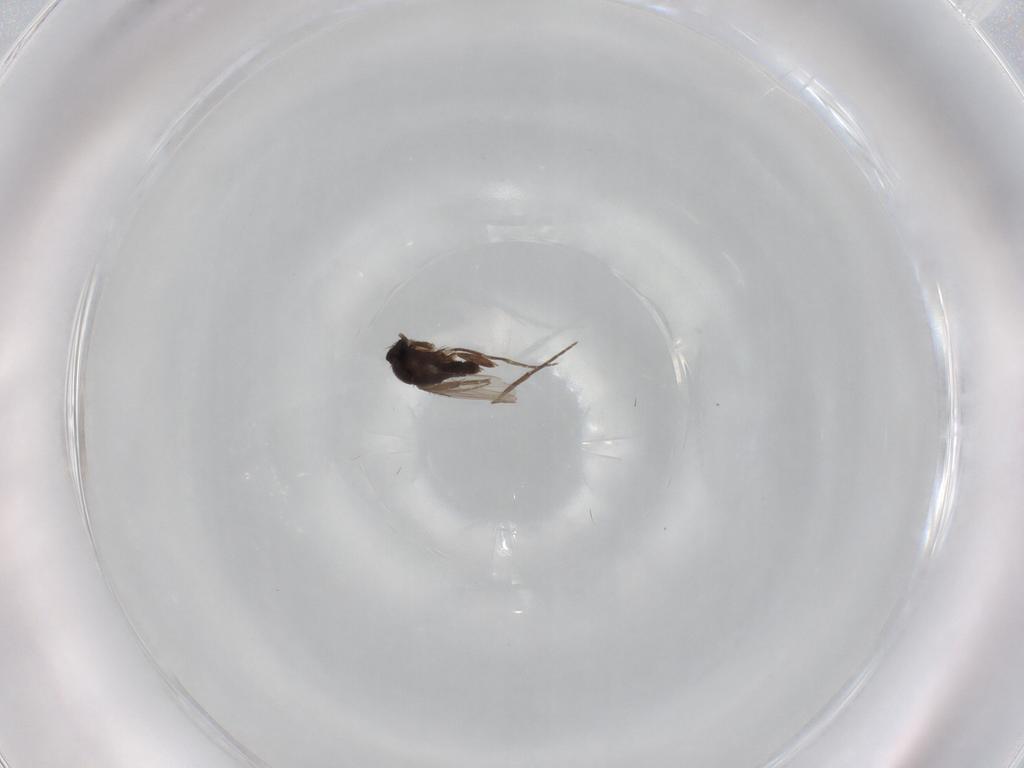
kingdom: Animalia
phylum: Arthropoda
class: Insecta
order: Diptera
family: Phoridae
